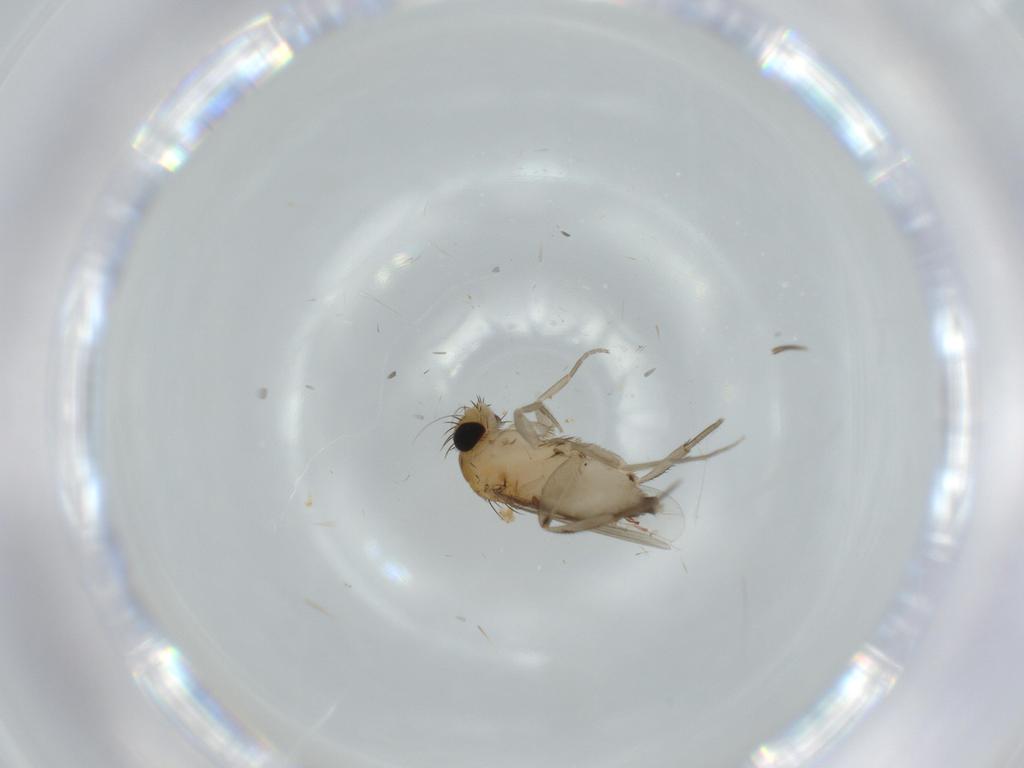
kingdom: Animalia
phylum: Arthropoda
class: Insecta
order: Diptera
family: Phoridae
